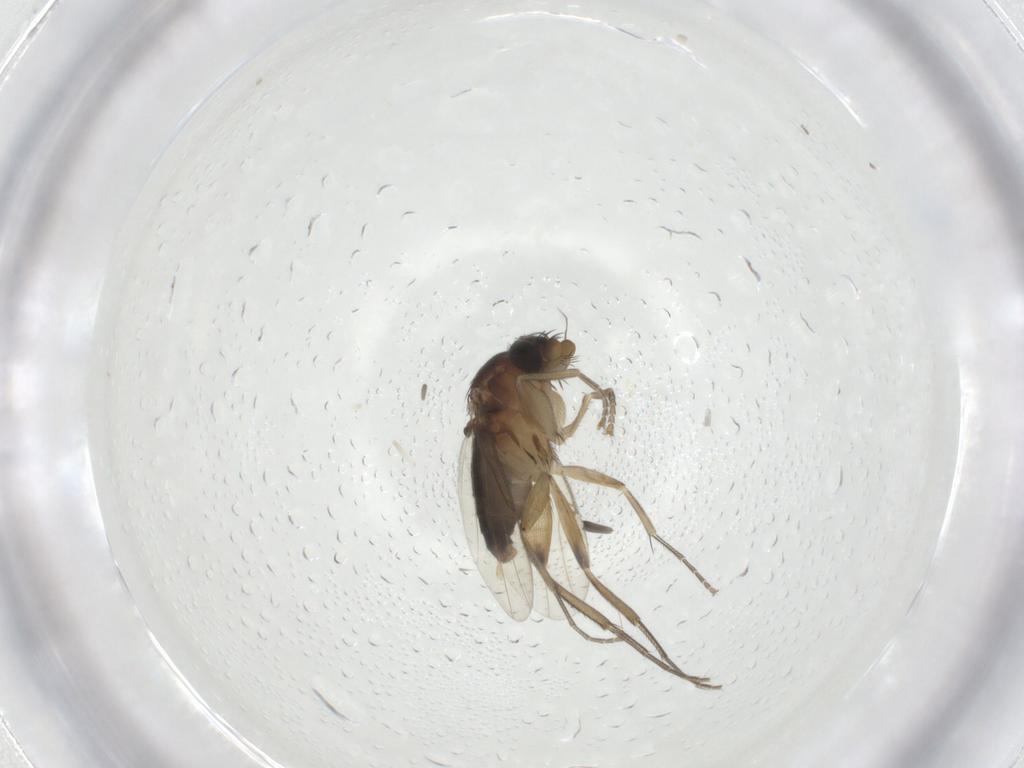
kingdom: Animalia
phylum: Arthropoda
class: Insecta
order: Diptera
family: Phoridae
